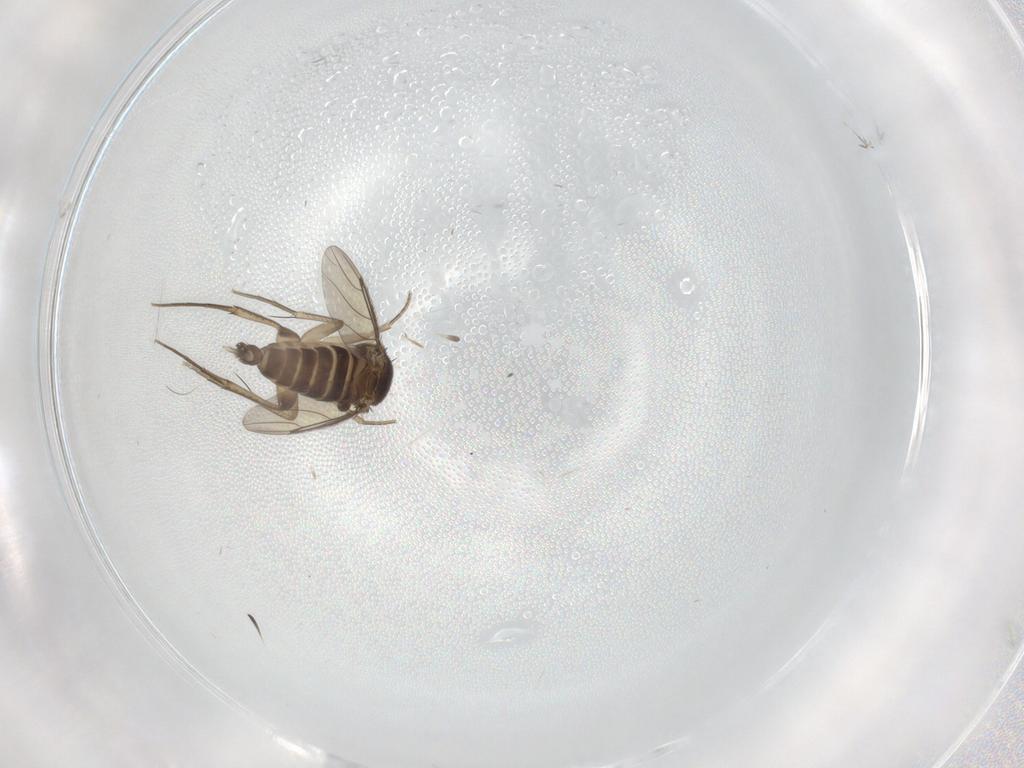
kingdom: Animalia
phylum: Arthropoda
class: Insecta
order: Diptera
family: Phoridae
